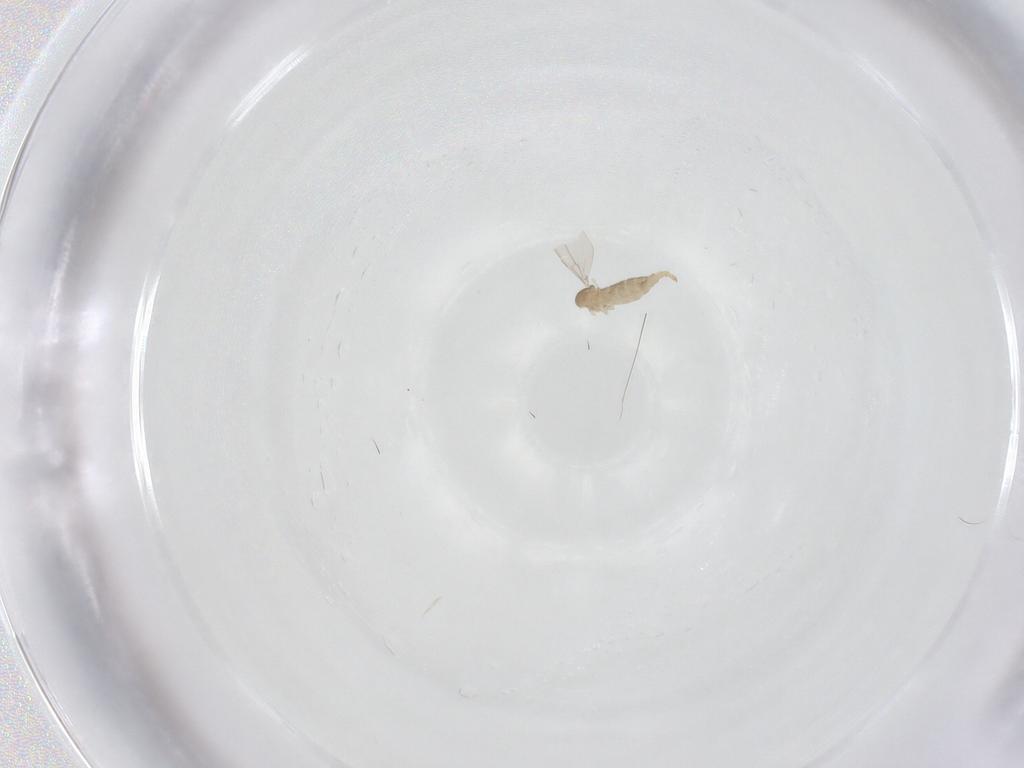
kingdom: Animalia
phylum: Arthropoda
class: Insecta
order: Diptera
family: Cecidomyiidae
